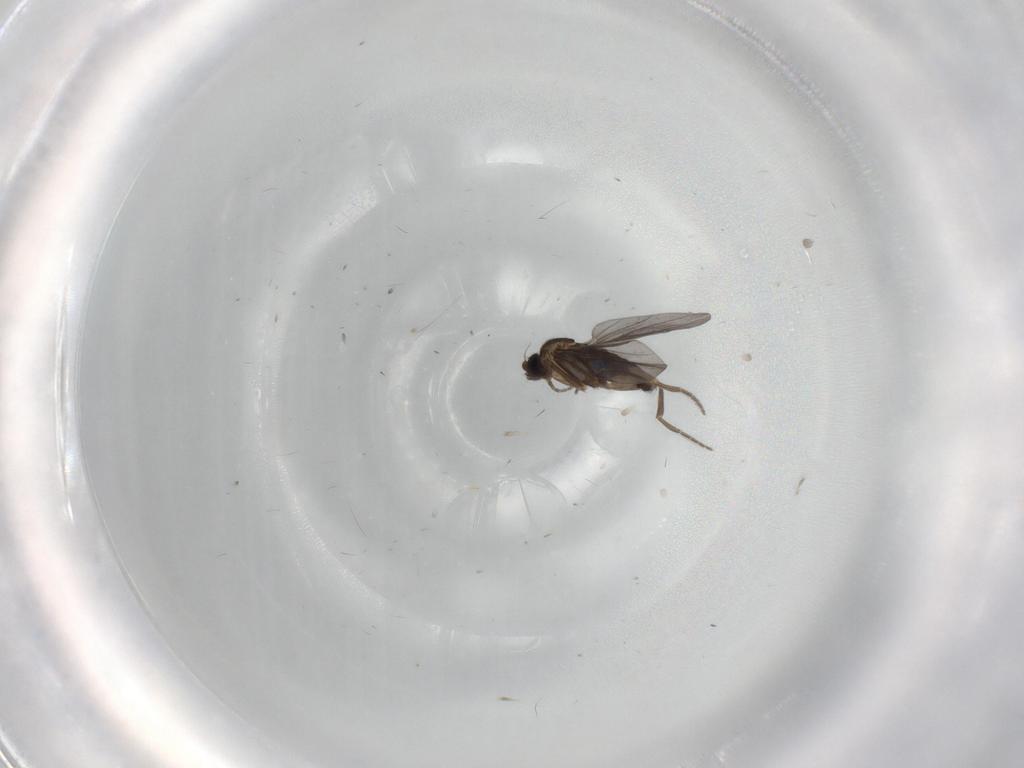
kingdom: Animalia
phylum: Arthropoda
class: Insecta
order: Diptera
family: Phoridae
